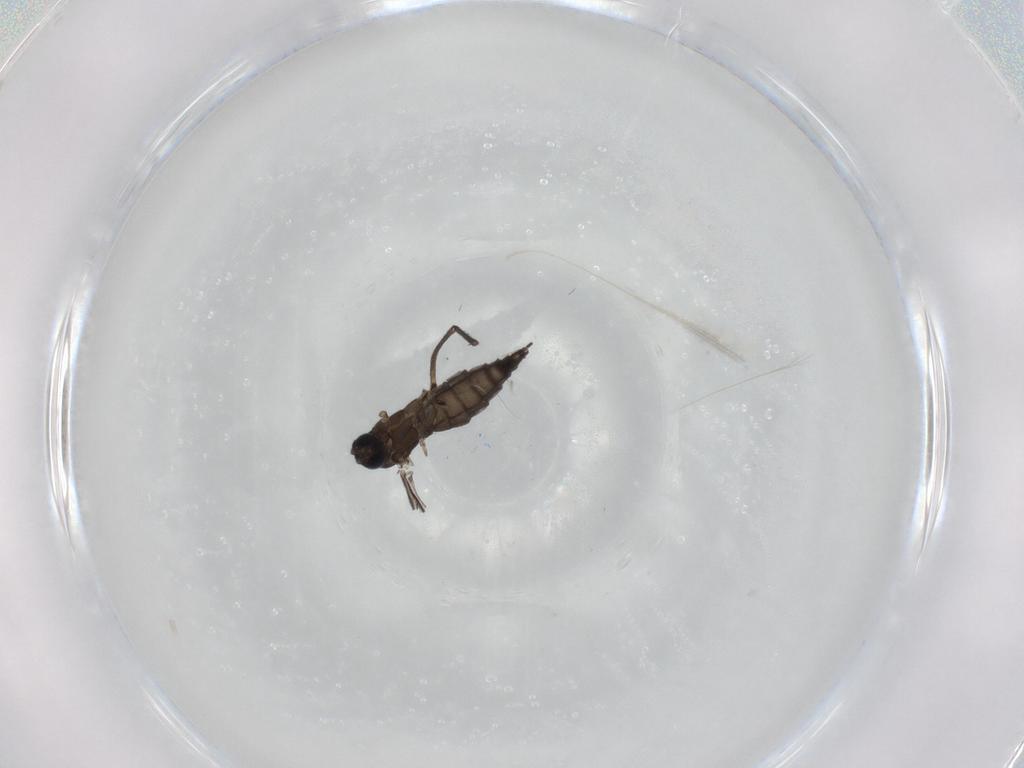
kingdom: Animalia
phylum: Arthropoda
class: Insecta
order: Diptera
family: Sciaridae
